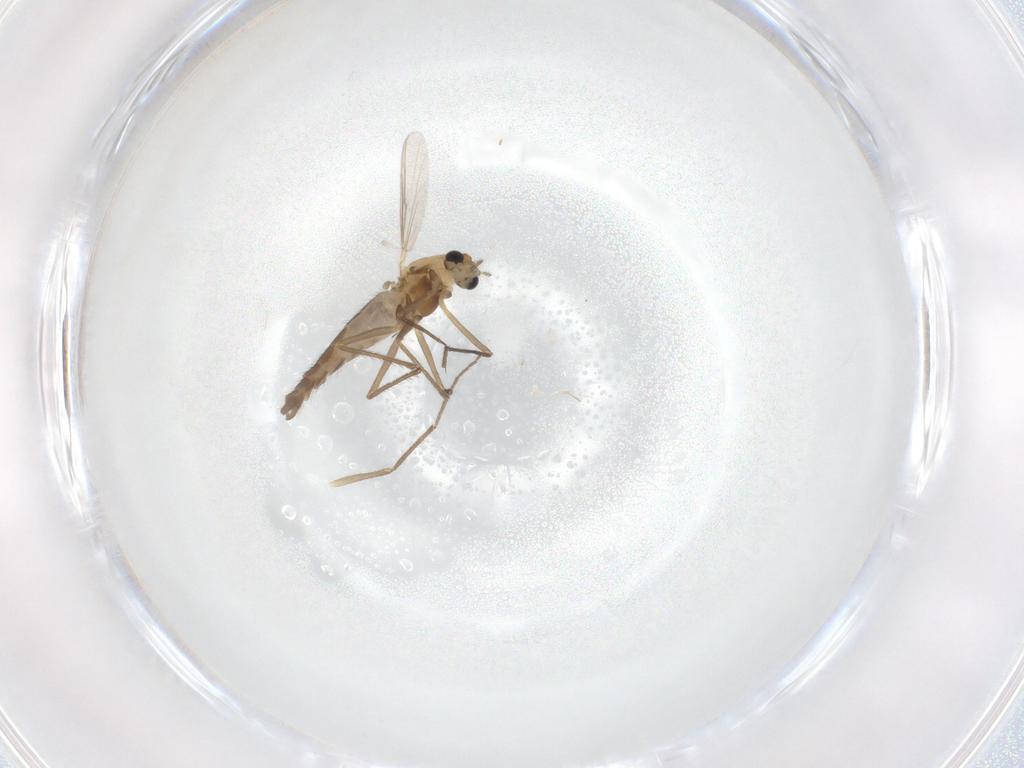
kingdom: Animalia
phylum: Arthropoda
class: Insecta
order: Diptera
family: Chironomidae
